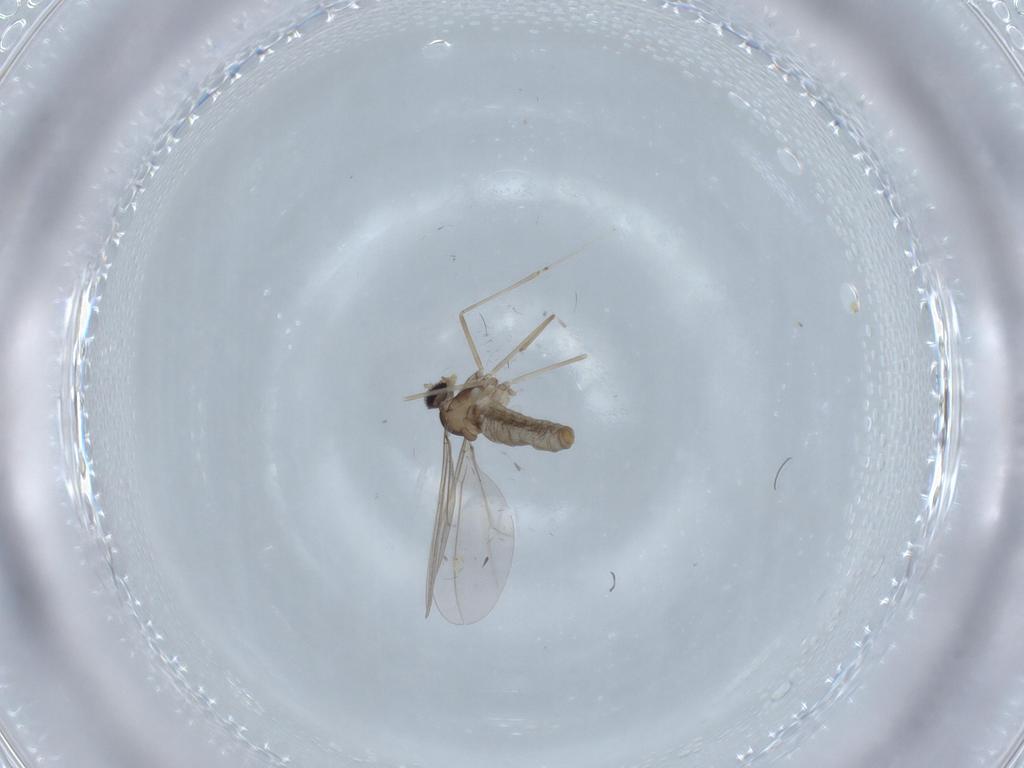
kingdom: Animalia
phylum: Arthropoda
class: Insecta
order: Diptera
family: Cecidomyiidae
